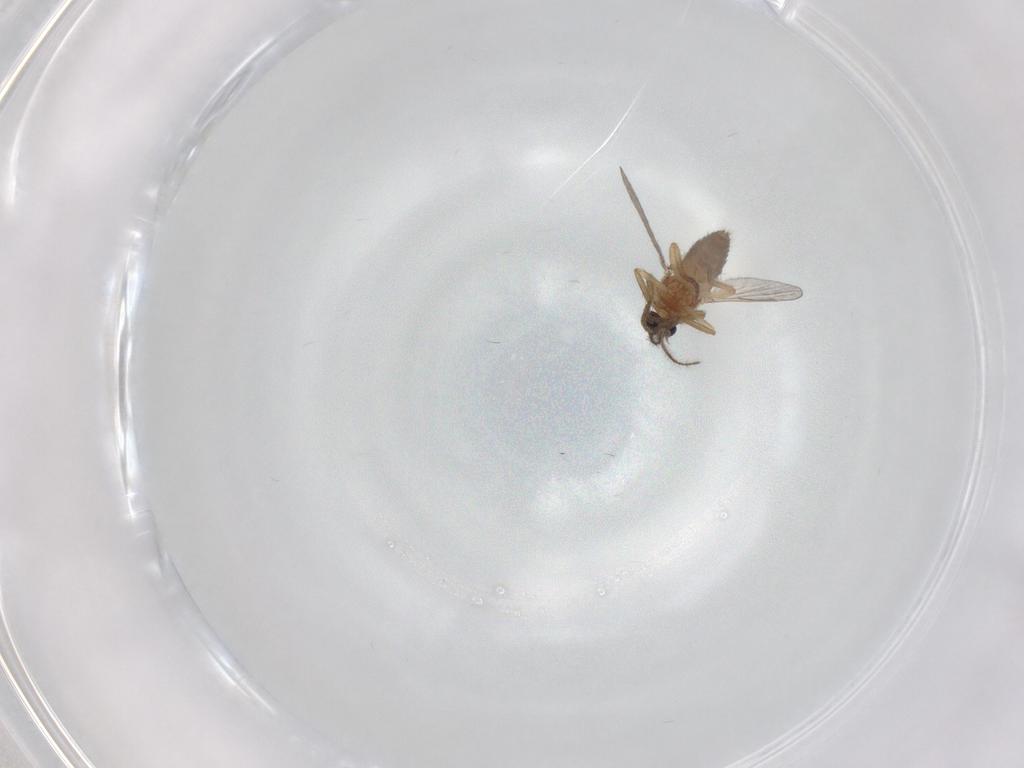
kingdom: Animalia
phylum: Arthropoda
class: Insecta
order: Diptera
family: Ceratopogonidae
